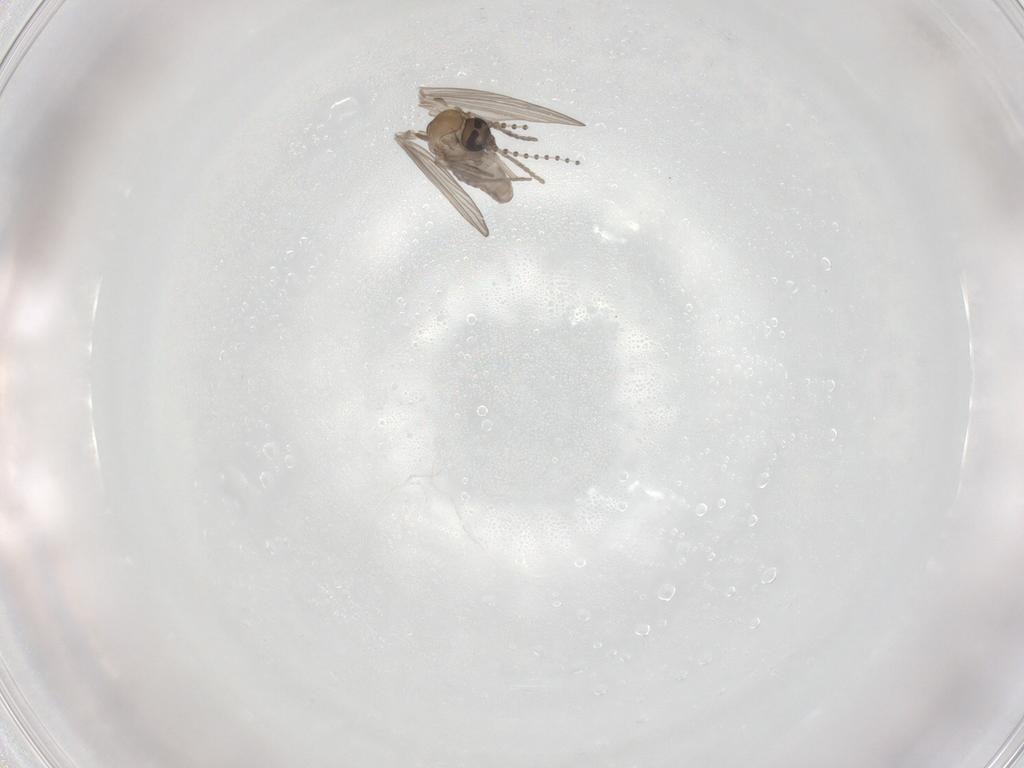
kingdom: Animalia
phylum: Arthropoda
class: Insecta
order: Diptera
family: Psychodidae
